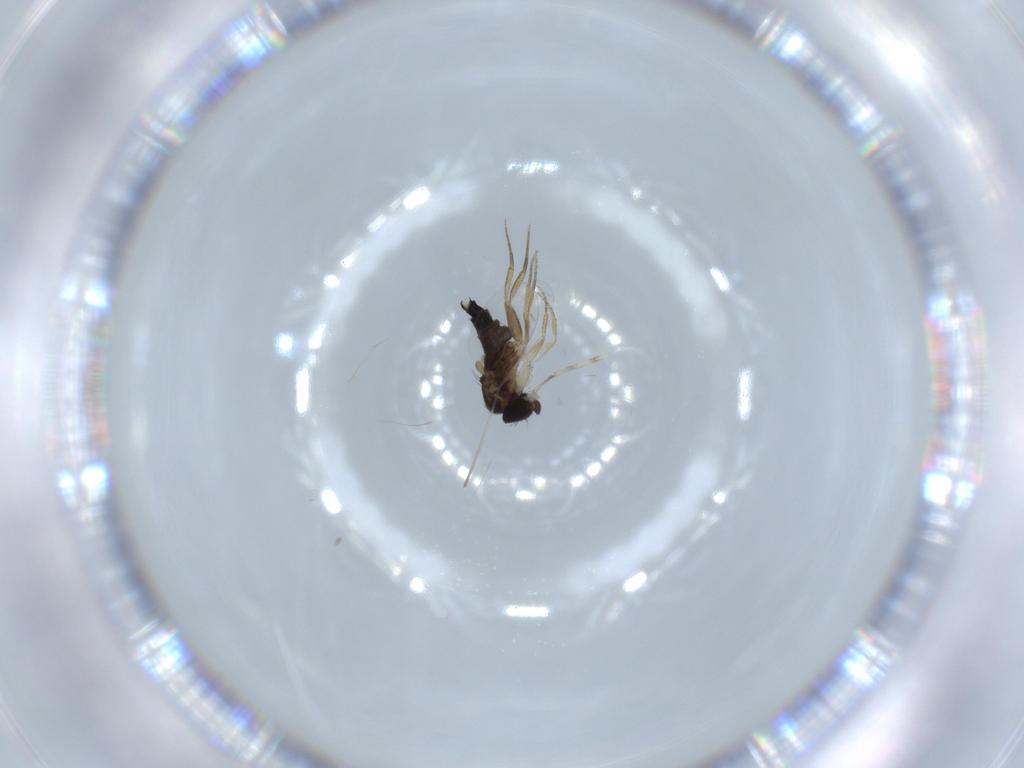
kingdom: Animalia
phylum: Arthropoda
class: Insecta
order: Diptera
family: Phoridae
